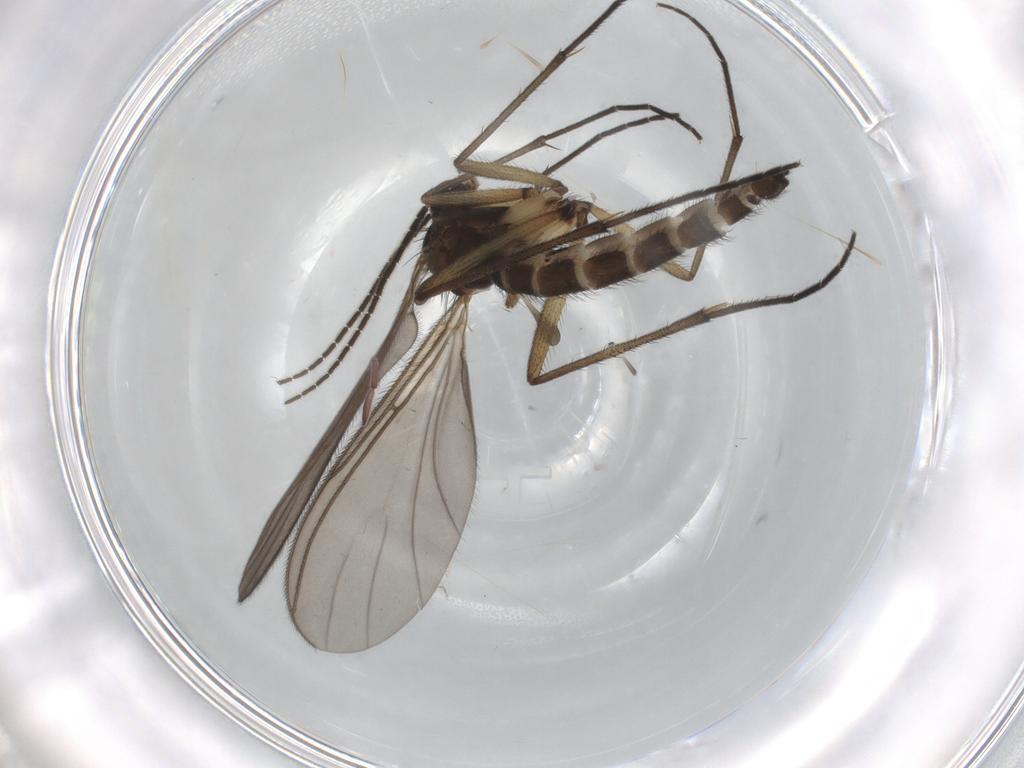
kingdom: Animalia
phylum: Arthropoda
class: Insecta
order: Diptera
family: Sciaridae
